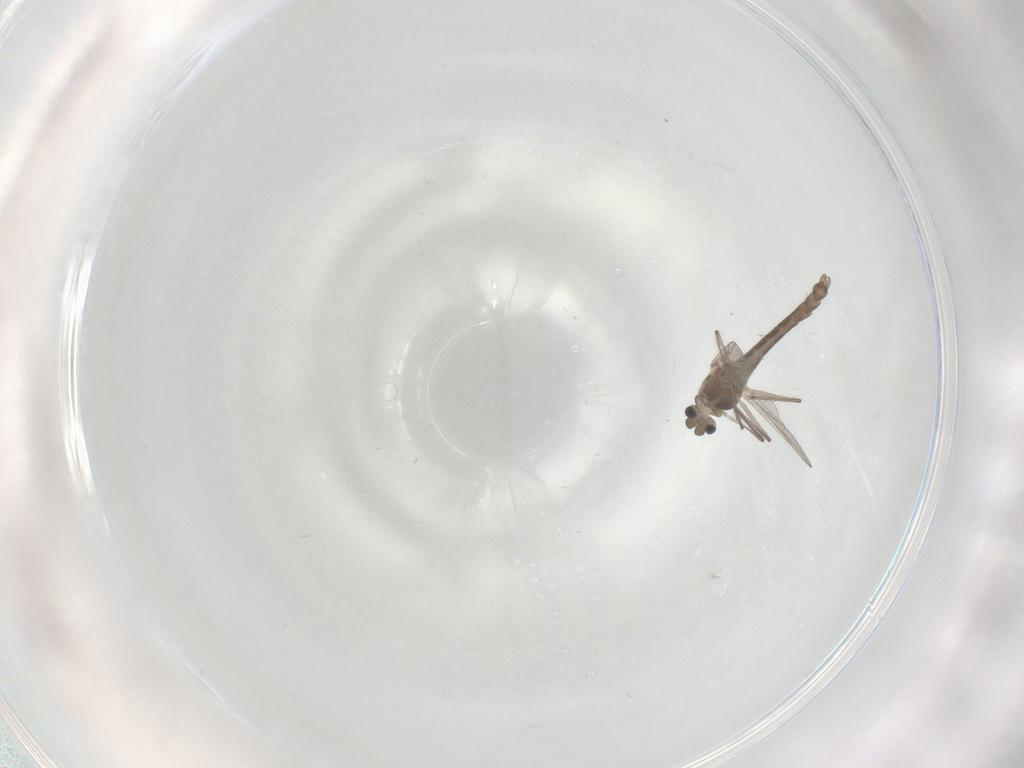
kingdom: Animalia
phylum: Arthropoda
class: Insecta
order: Diptera
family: Chironomidae
